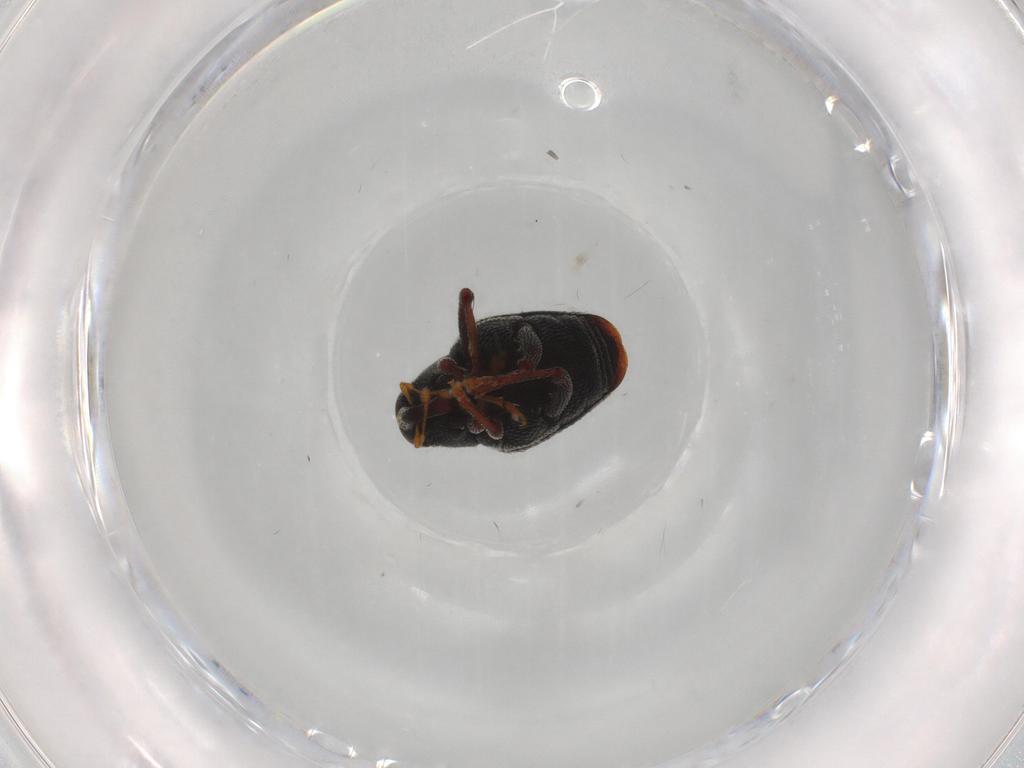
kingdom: Animalia
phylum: Arthropoda
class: Insecta
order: Coleoptera
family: Curculionidae
